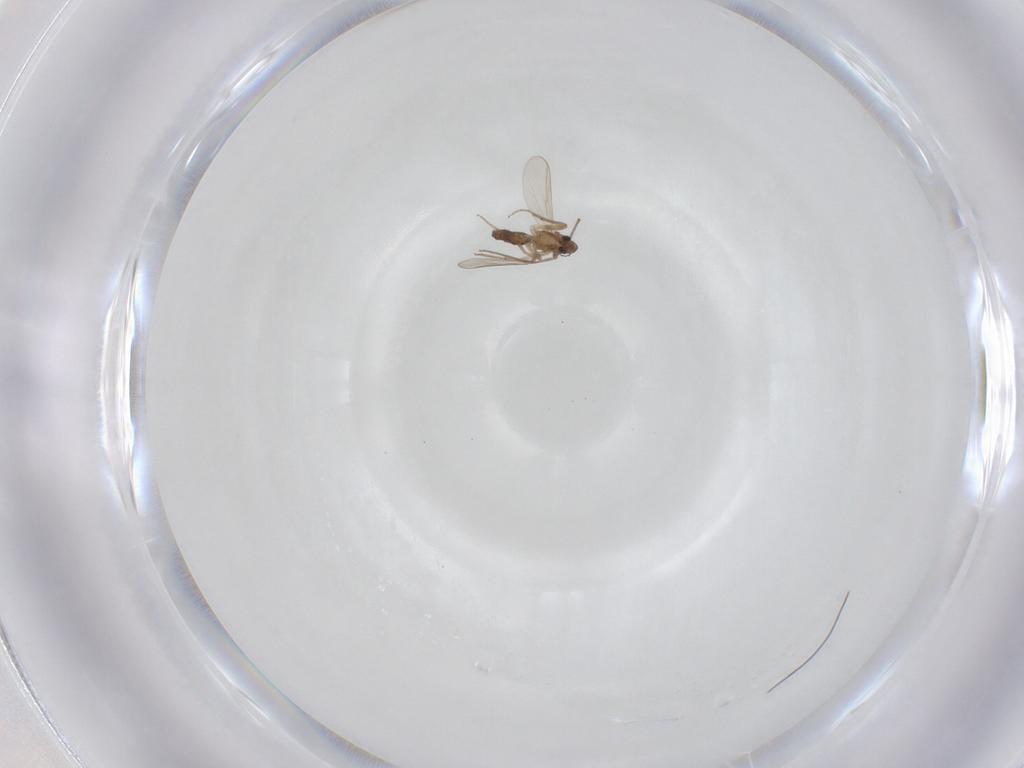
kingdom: Animalia
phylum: Arthropoda
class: Insecta
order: Diptera
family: Chironomidae
